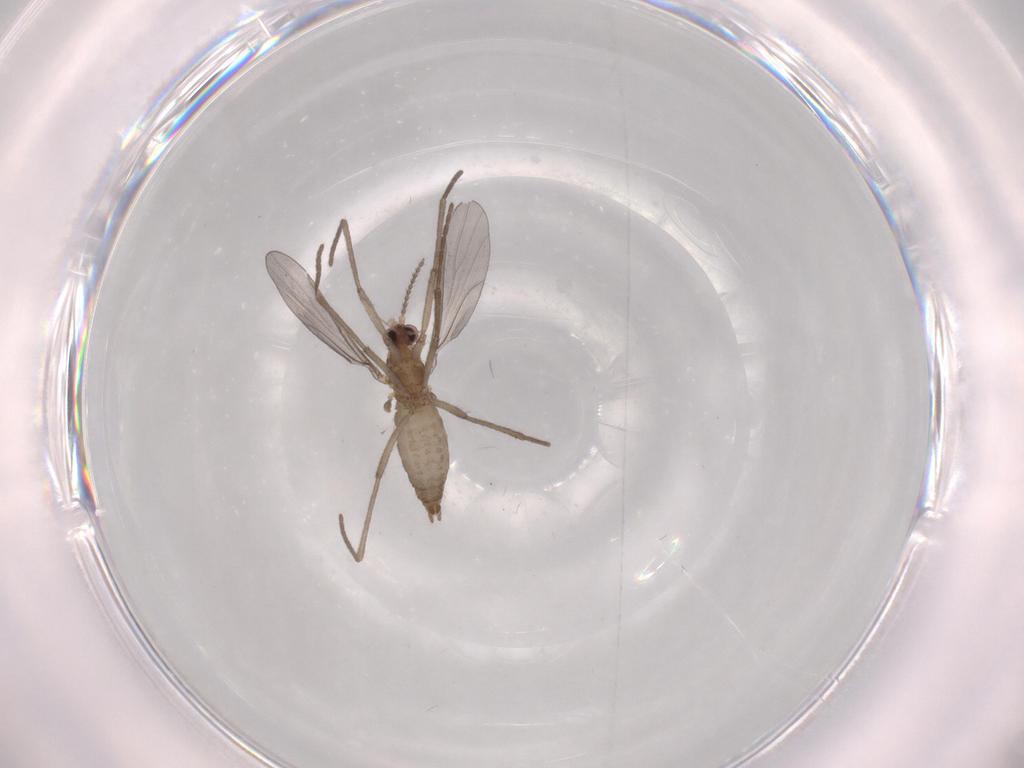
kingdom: Animalia
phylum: Arthropoda
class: Insecta
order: Diptera
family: Cecidomyiidae
